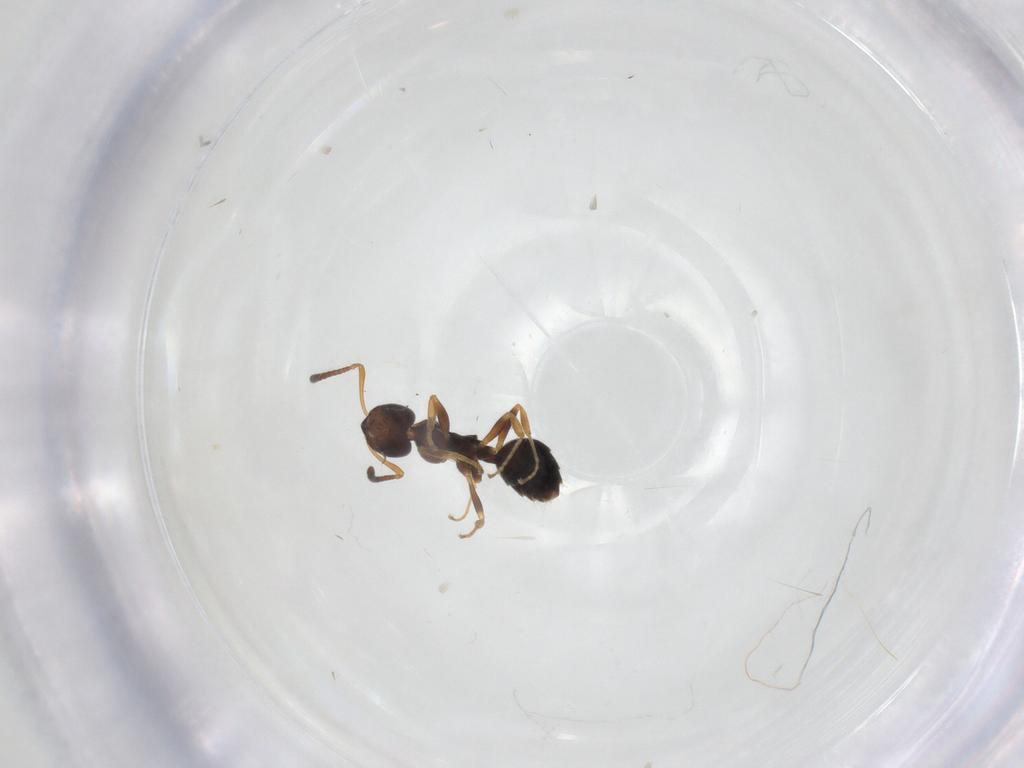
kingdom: Animalia
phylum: Arthropoda
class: Insecta
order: Hymenoptera
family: Formicidae
